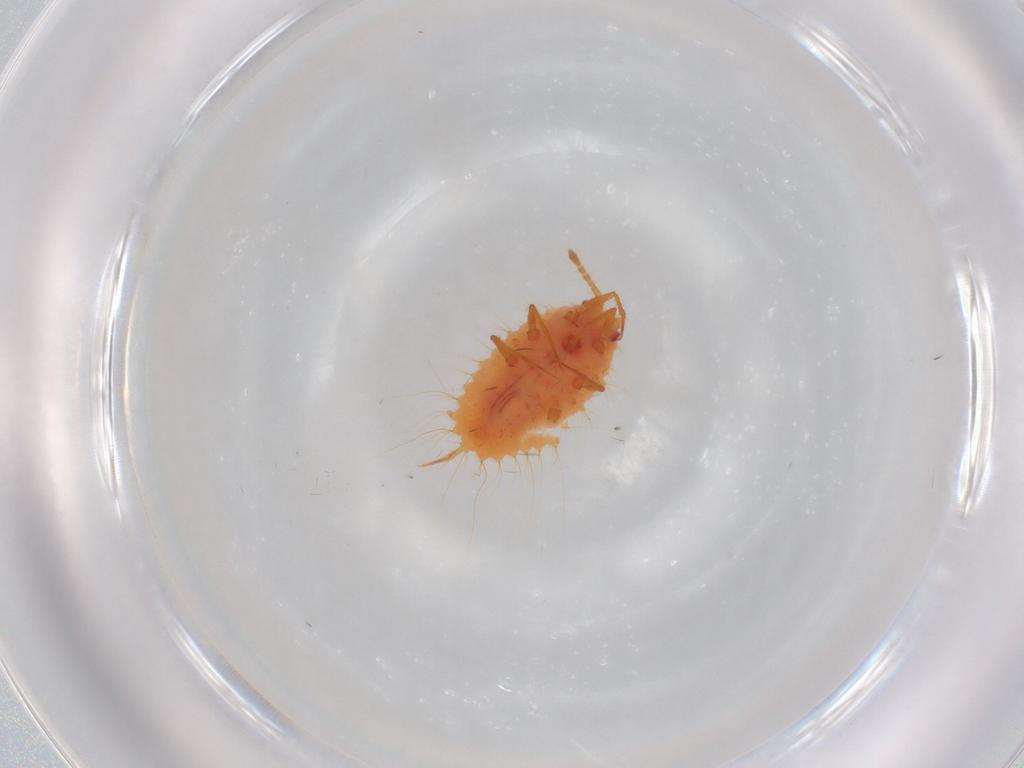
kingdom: Animalia
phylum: Arthropoda
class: Insecta
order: Hemiptera
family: Coccoidea_incertae_sedis
